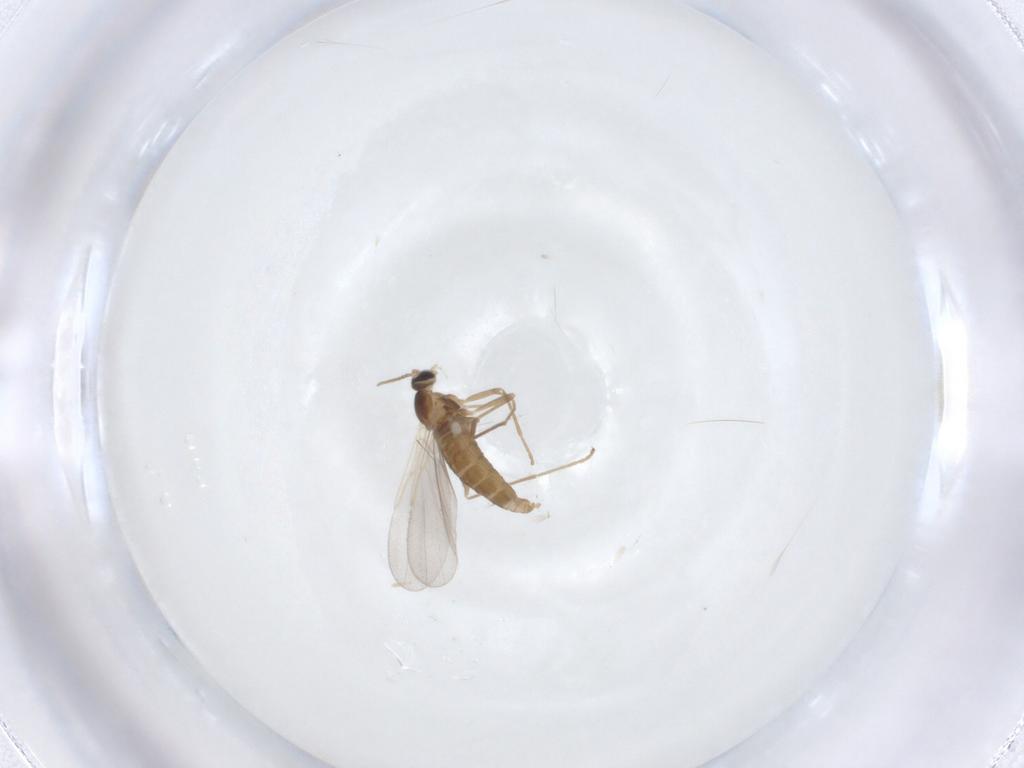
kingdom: Animalia
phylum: Arthropoda
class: Insecta
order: Diptera
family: Cecidomyiidae
